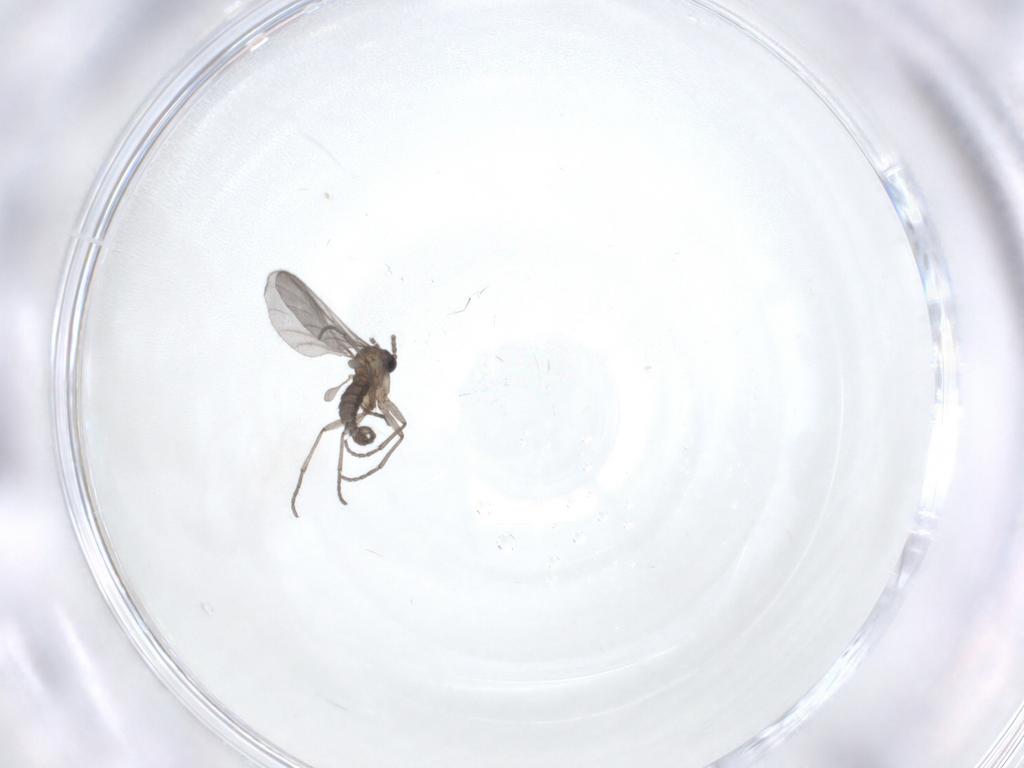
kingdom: Animalia
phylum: Arthropoda
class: Insecta
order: Diptera
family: Sciaridae
